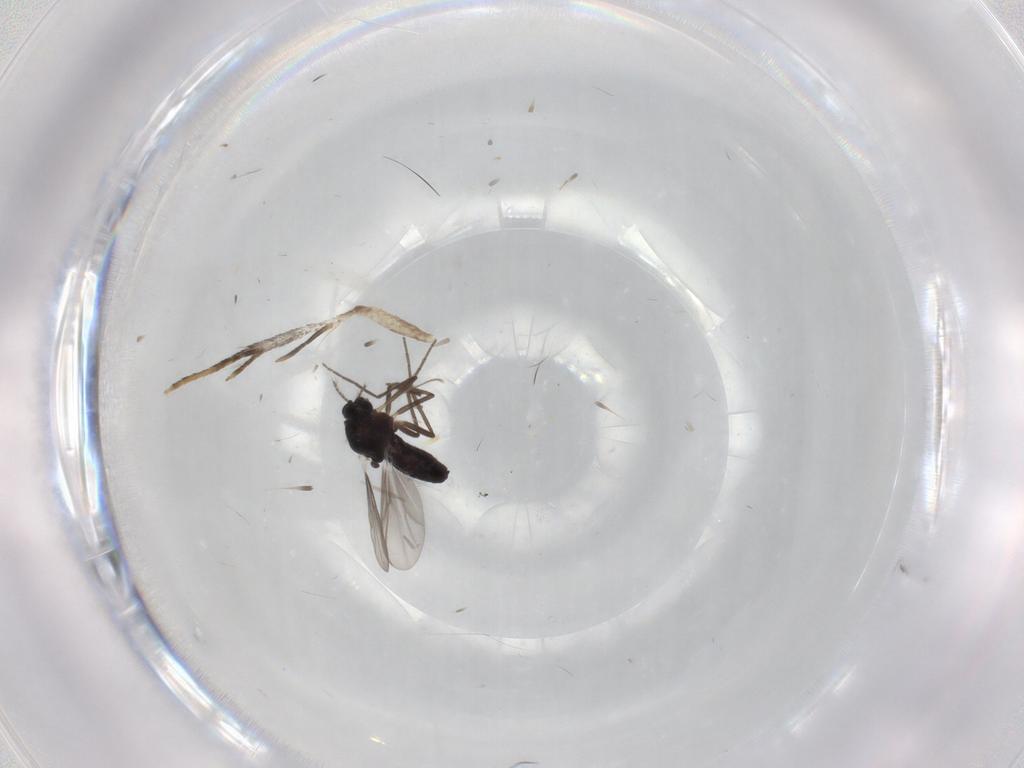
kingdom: Animalia
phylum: Arthropoda
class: Insecta
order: Diptera
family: Chironomidae
